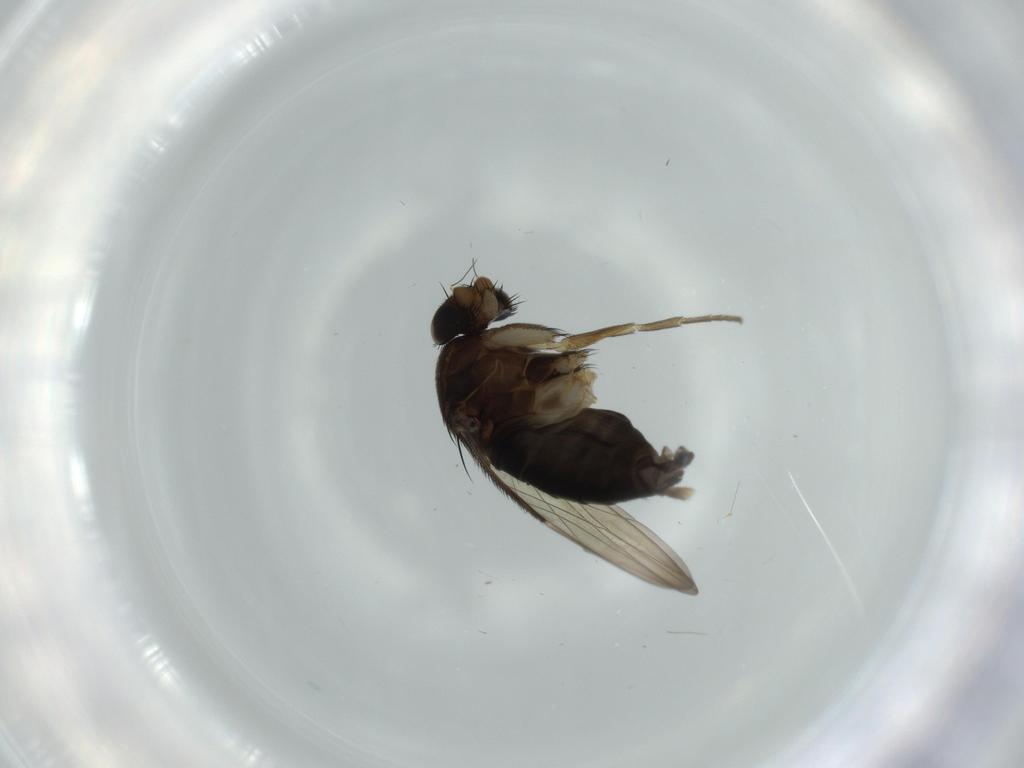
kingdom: Animalia
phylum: Arthropoda
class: Insecta
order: Diptera
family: Phoridae
